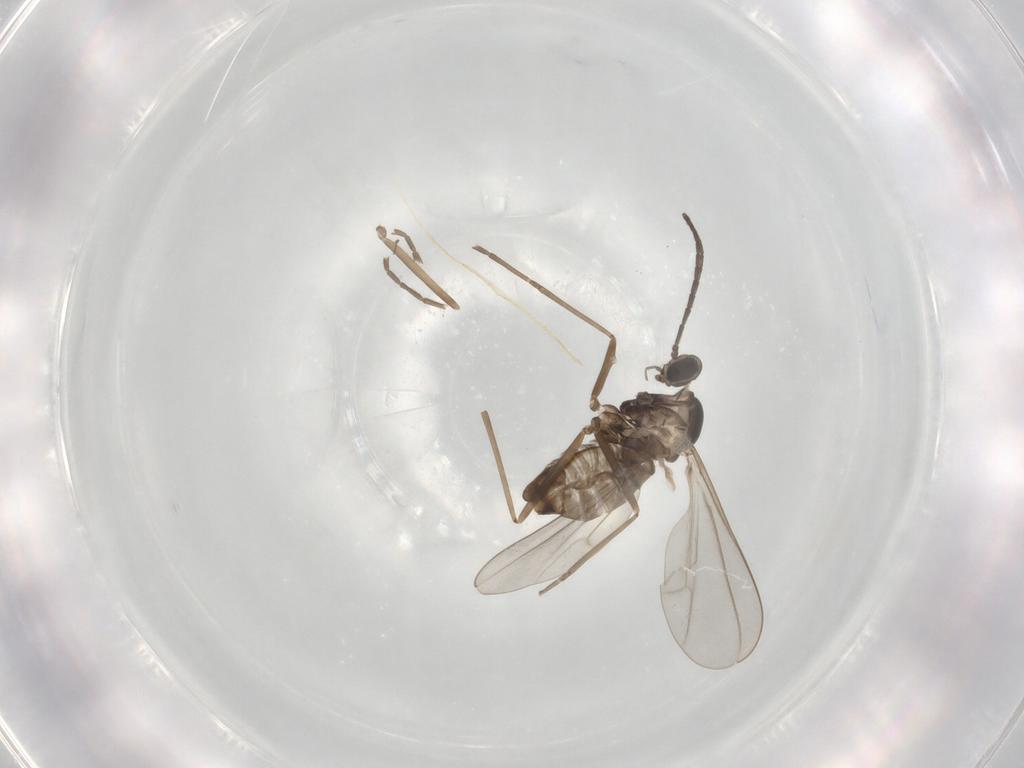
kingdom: Animalia
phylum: Arthropoda
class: Insecta
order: Diptera
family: Cecidomyiidae
